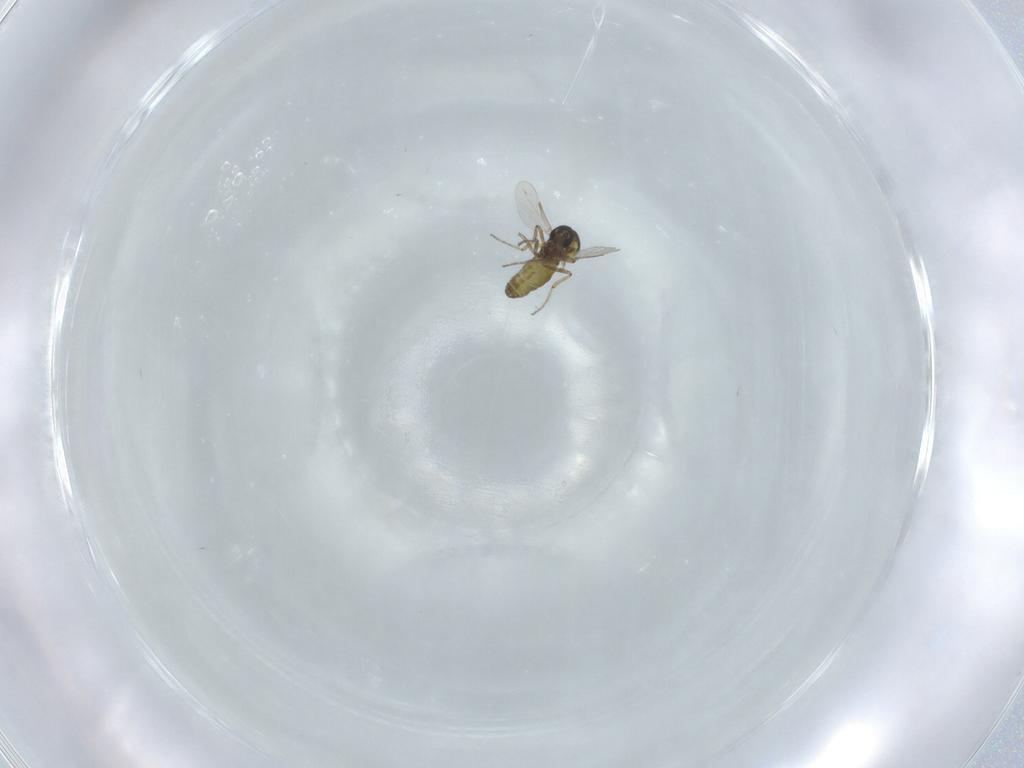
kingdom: Animalia
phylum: Arthropoda
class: Insecta
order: Diptera
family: Ceratopogonidae
